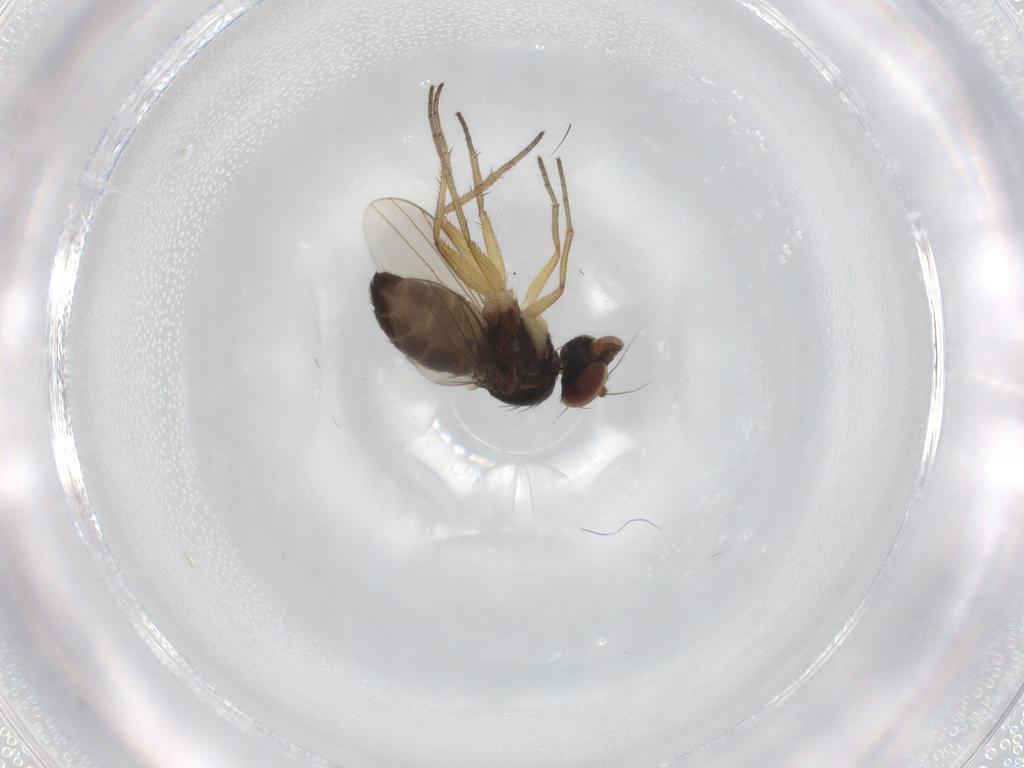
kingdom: Animalia
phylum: Arthropoda
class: Insecta
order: Diptera
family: Dolichopodidae
